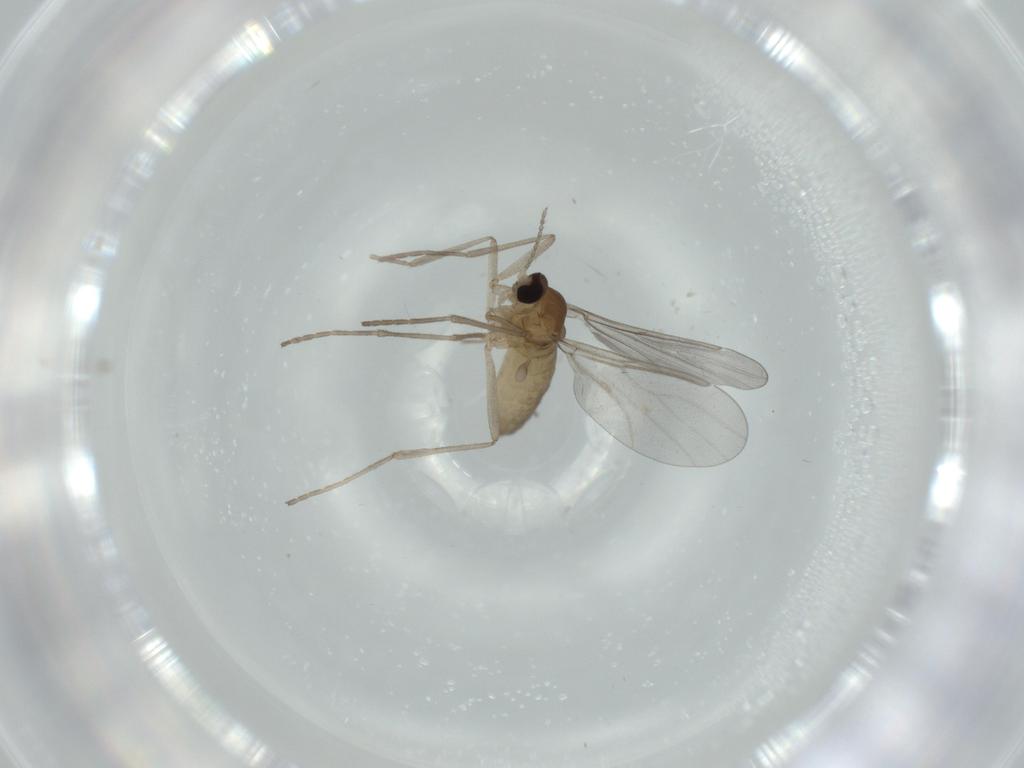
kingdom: Animalia
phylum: Arthropoda
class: Insecta
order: Diptera
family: Cecidomyiidae
